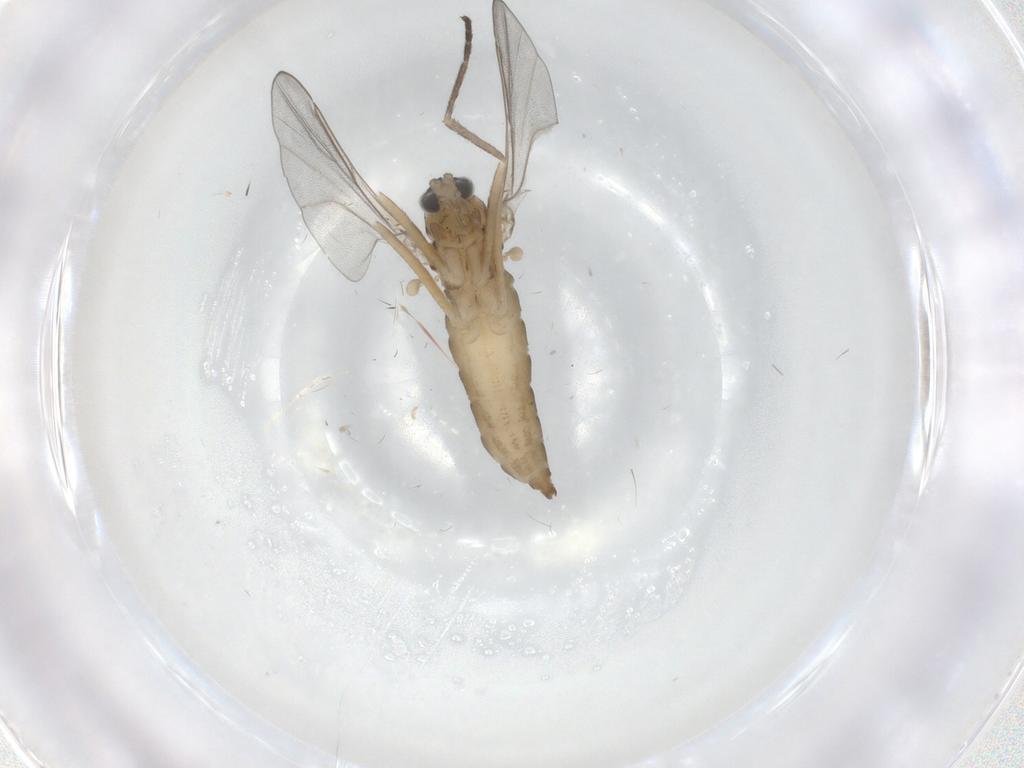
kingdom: Animalia
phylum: Arthropoda
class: Insecta
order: Diptera
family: Cecidomyiidae
